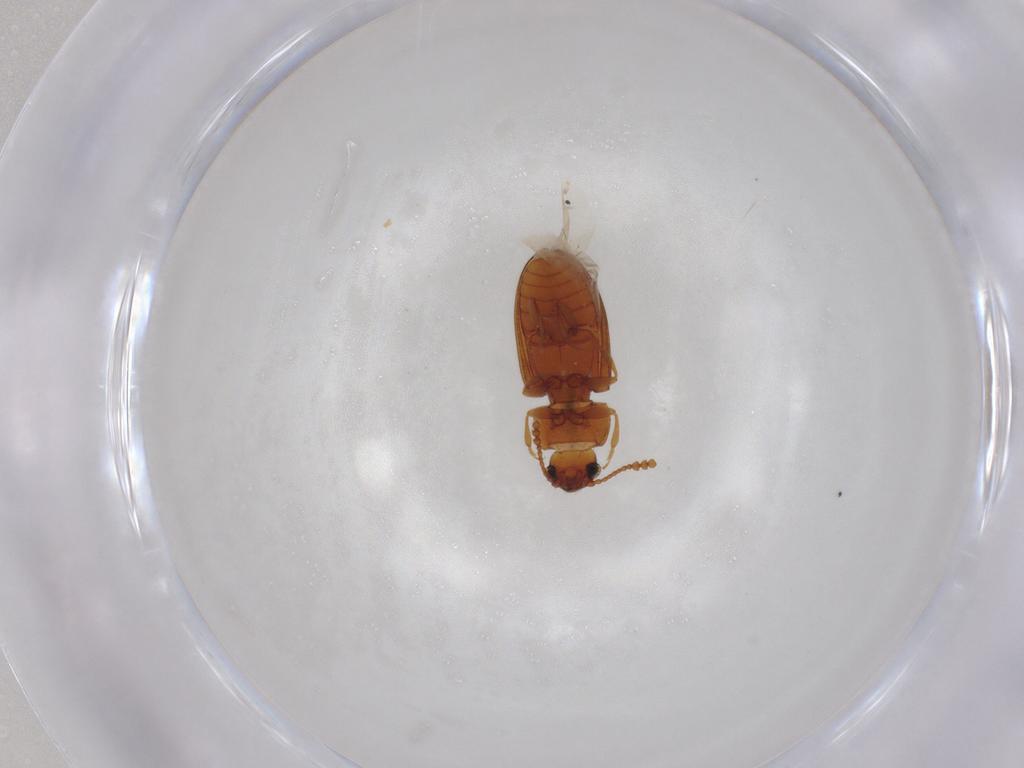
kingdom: Animalia
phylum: Arthropoda
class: Insecta
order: Coleoptera
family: Erotylidae
